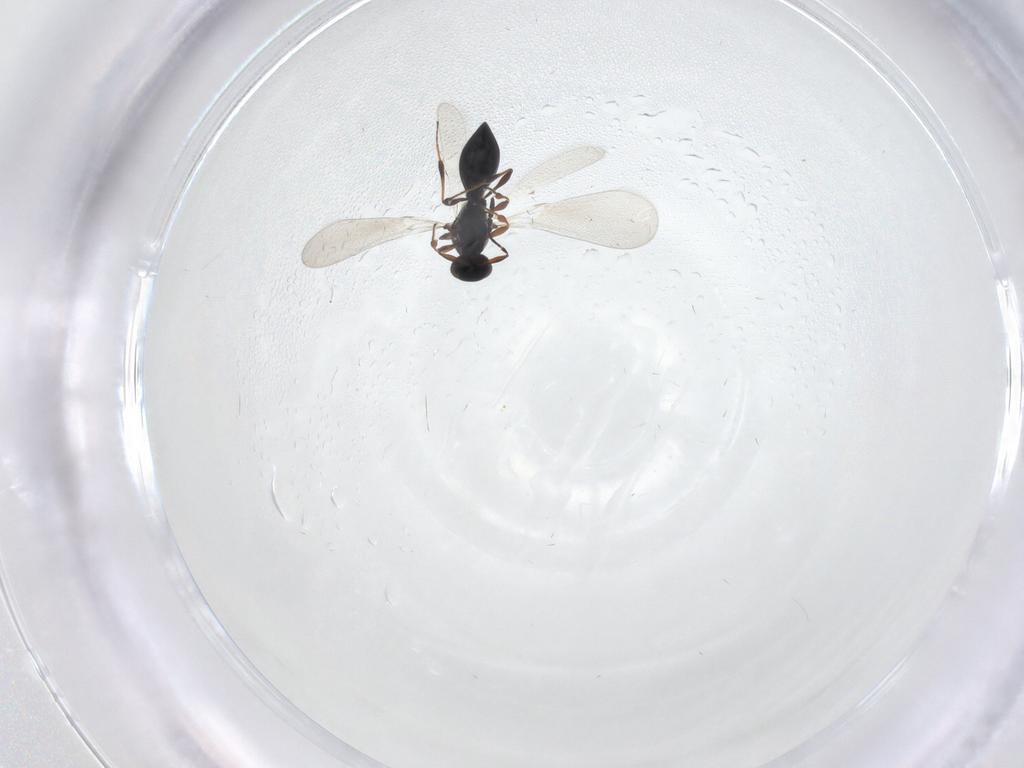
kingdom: Animalia
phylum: Arthropoda
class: Insecta
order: Hymenoptera
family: Platygastridae
